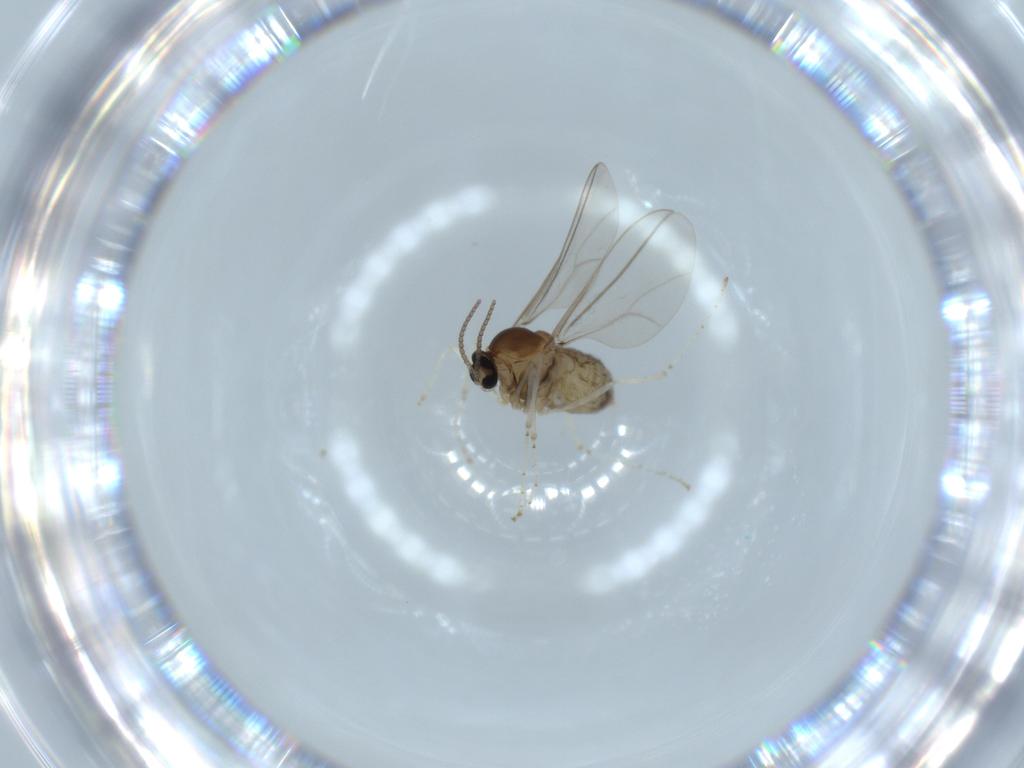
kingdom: Animalia
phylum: Arthropoda
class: Insecta
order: Diptera
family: Cecidomyiidae
